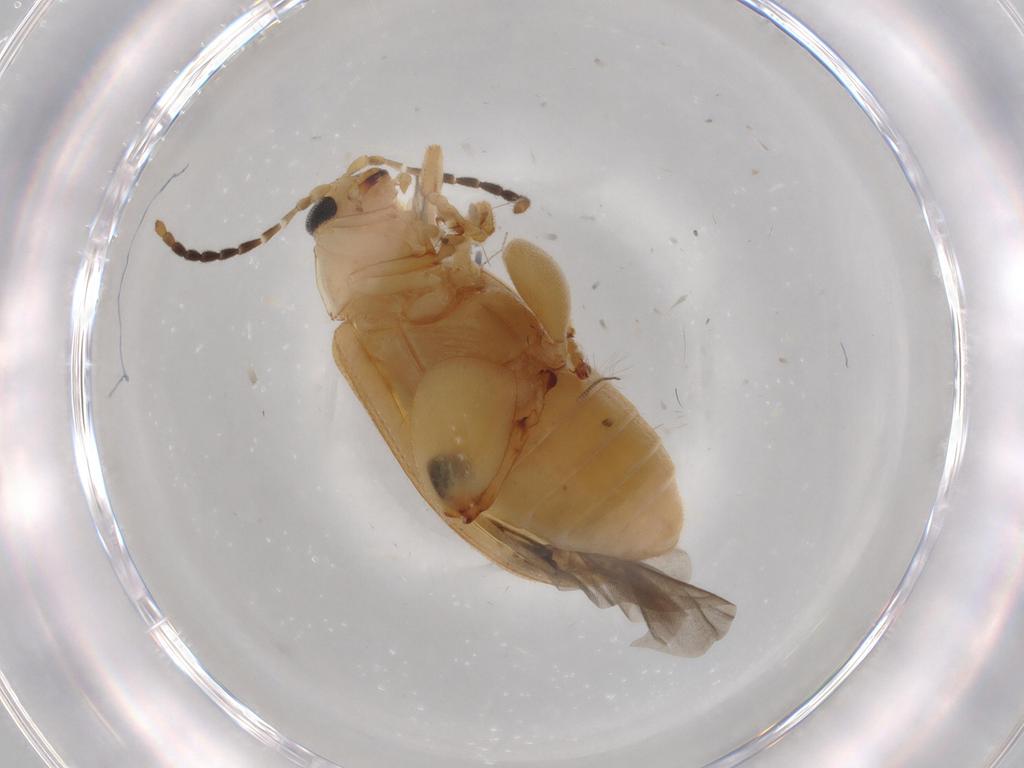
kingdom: Animalia
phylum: Arthropoda
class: Insecta
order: Coleoptera
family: Chrysomelidae
